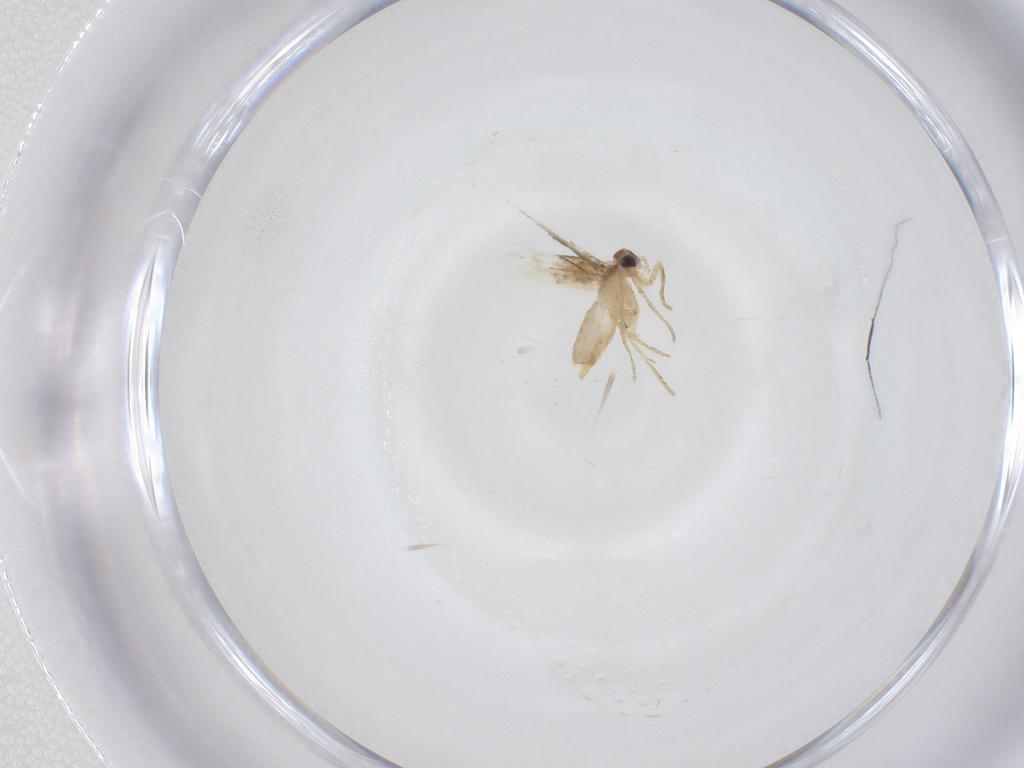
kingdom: Animalia
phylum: Arthropoda
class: Insecta
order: Lepidoptera
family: Nepticulidae
